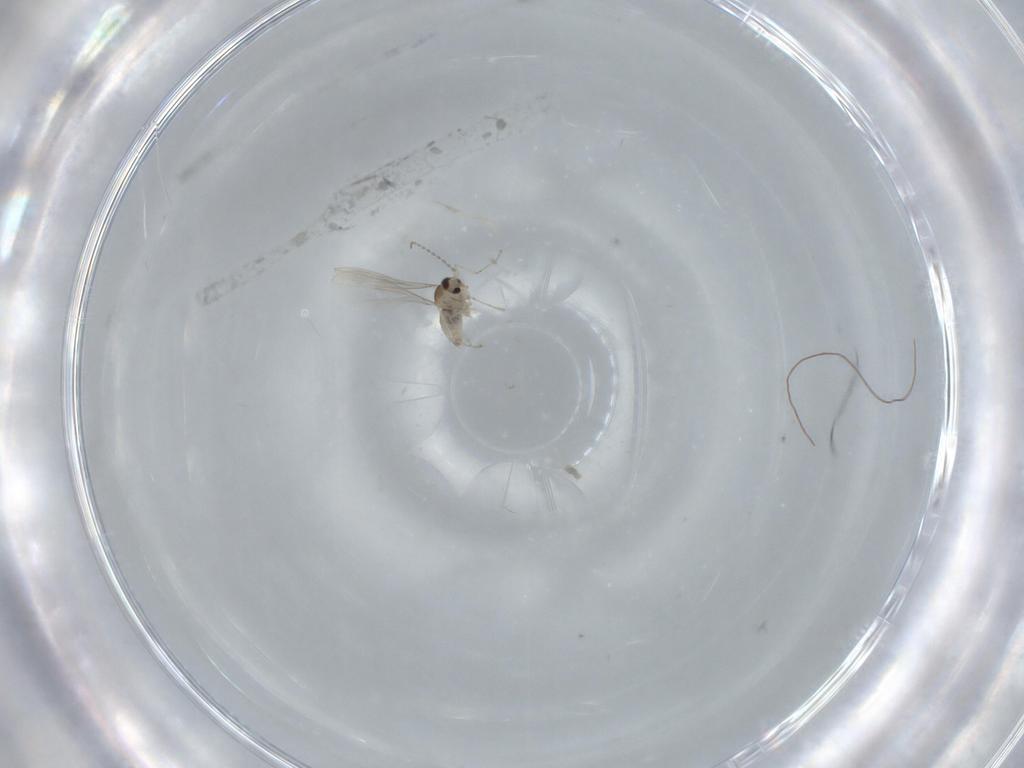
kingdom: Animalia
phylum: Arthropoda
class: Insecta
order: Diptera
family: Cecidomyiidae
